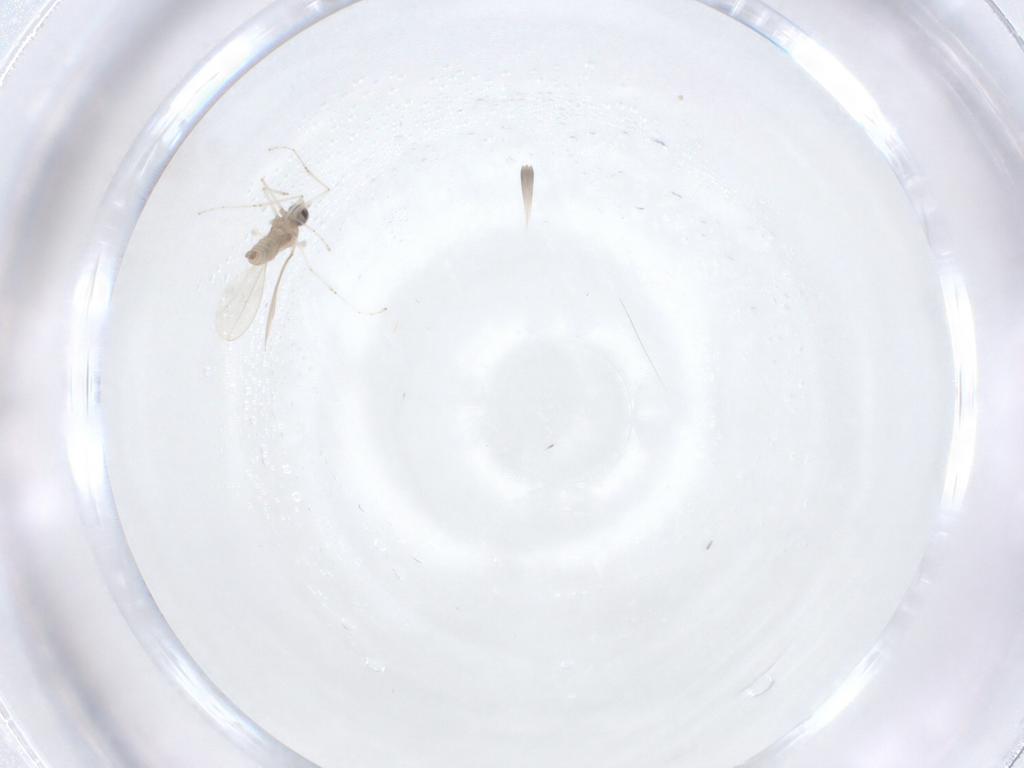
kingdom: Animalia
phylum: Arthropoda
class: Insecta
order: Diptera
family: Limoniidae
